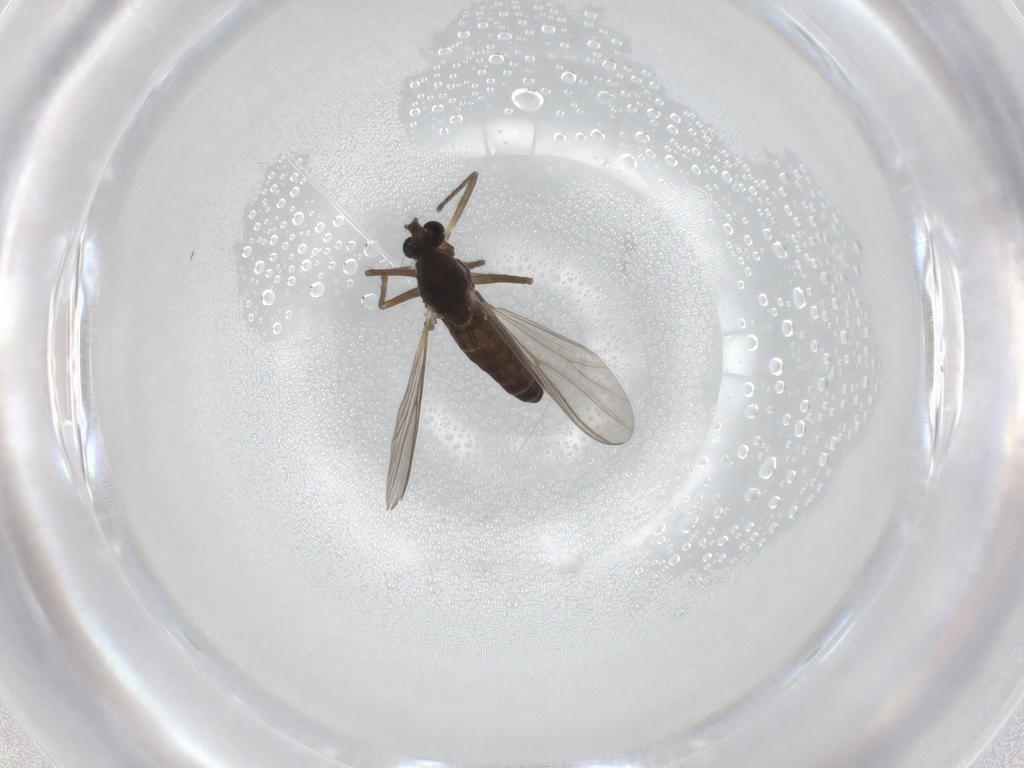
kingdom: Animalia
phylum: Arthropoda
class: Insecta
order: Diptera
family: Chironomidae
